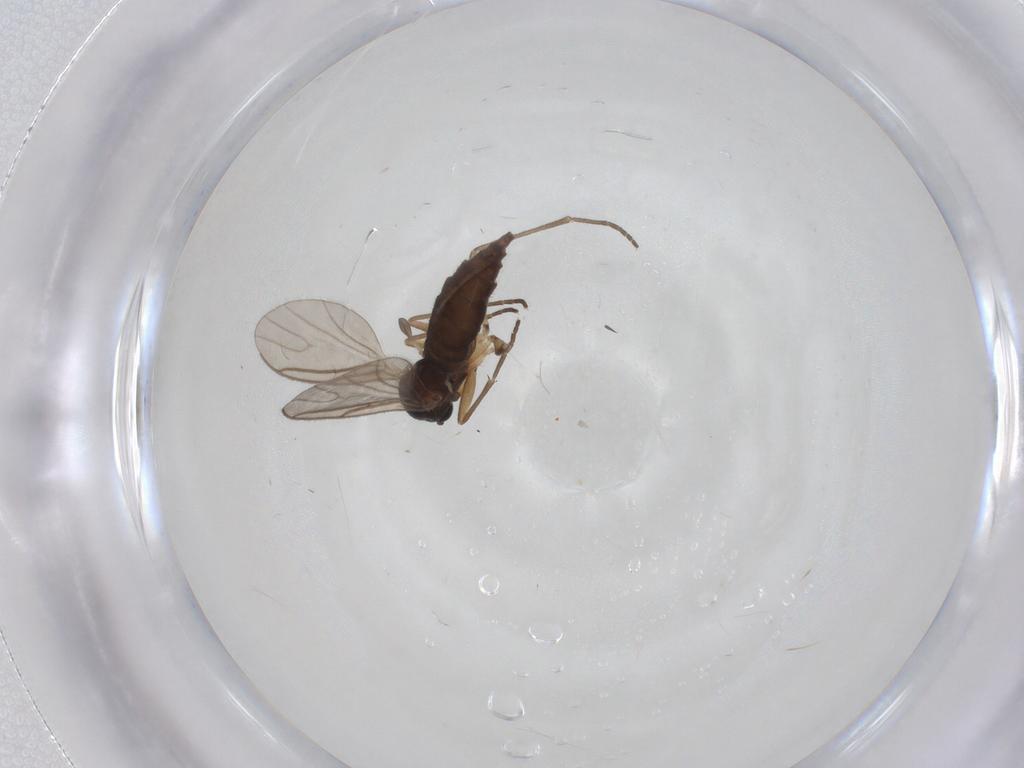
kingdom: Animalia
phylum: Arthropoda
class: Insecta
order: Diptera
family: Sciaridae
